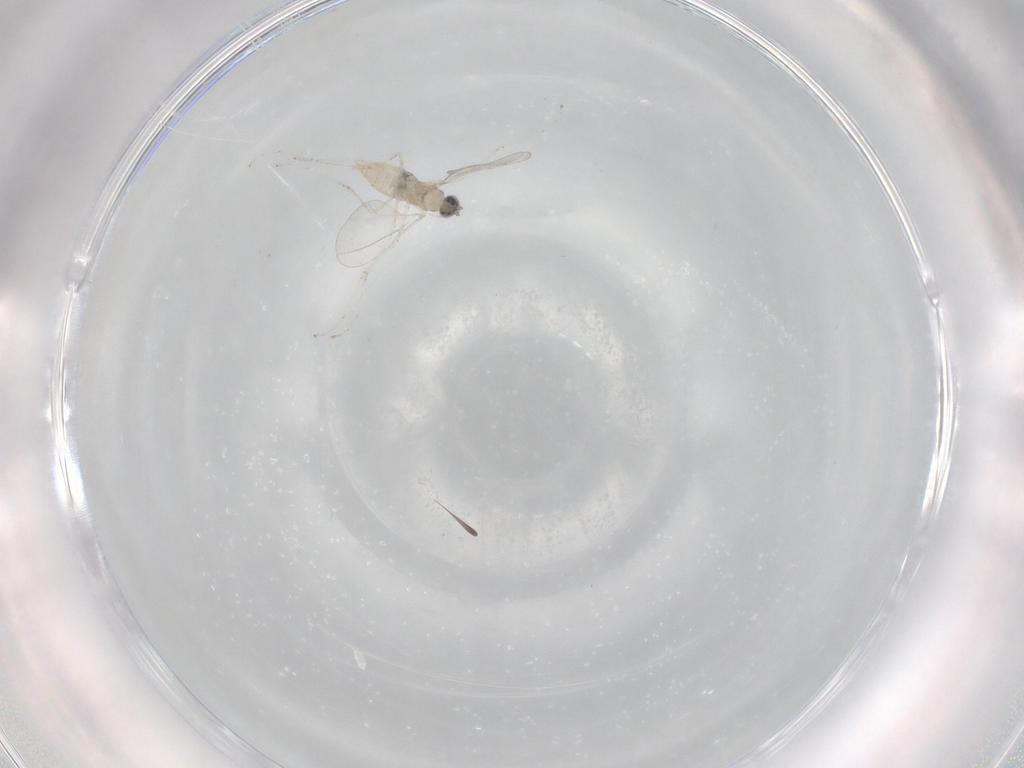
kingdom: Animalia
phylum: Arthropoda
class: Insecta
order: Diptera
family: Cecidomyiidae
